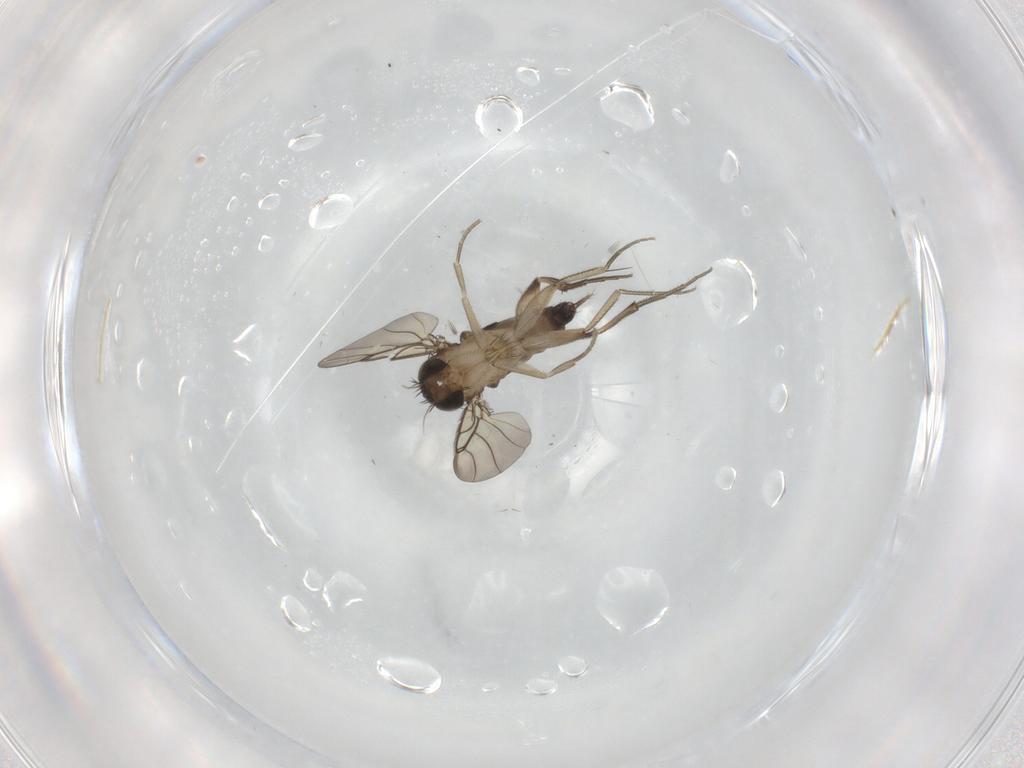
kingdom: Animalia
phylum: Arthropoda
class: Insecta
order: Diptera
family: Phoridae
